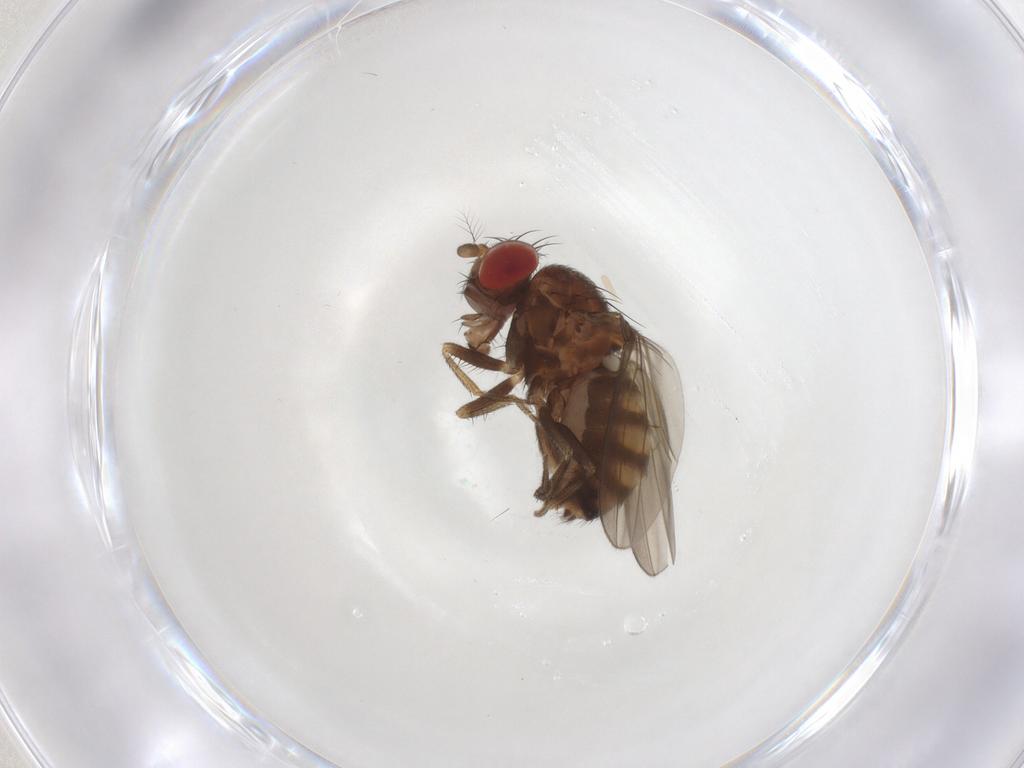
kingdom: Animalia
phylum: Arthropoda
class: Insecta
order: Diptera
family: Drosophilidae
